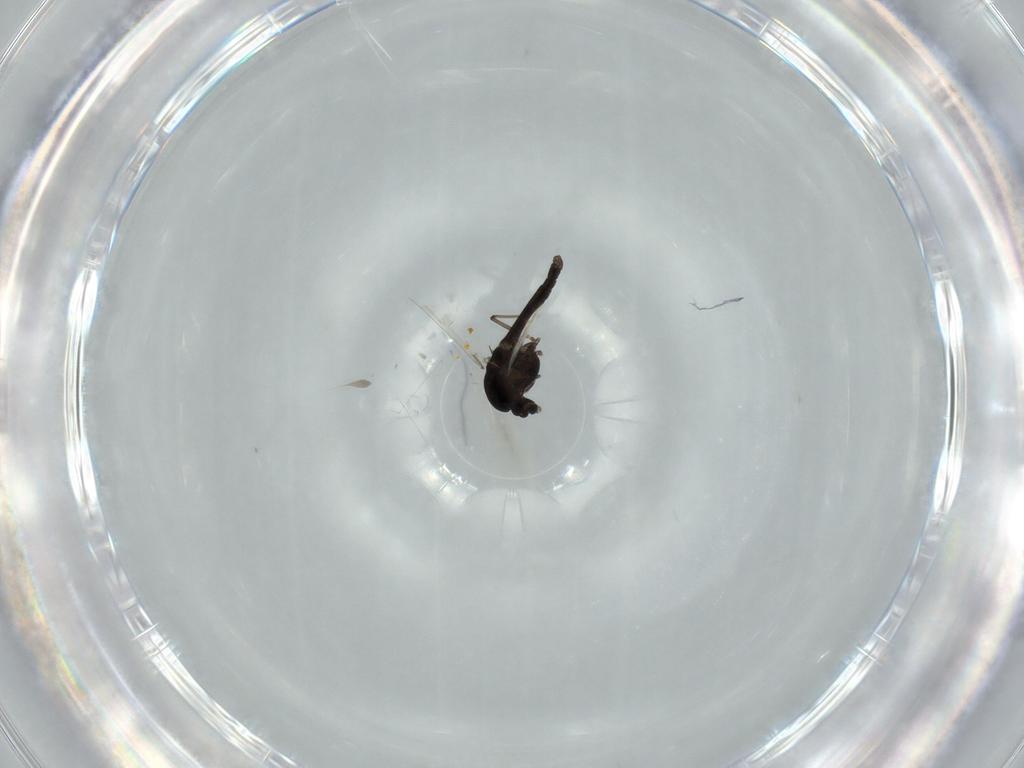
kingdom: Animalia
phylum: Arthropoda
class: Insecta
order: Diptera
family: Chironomidae
